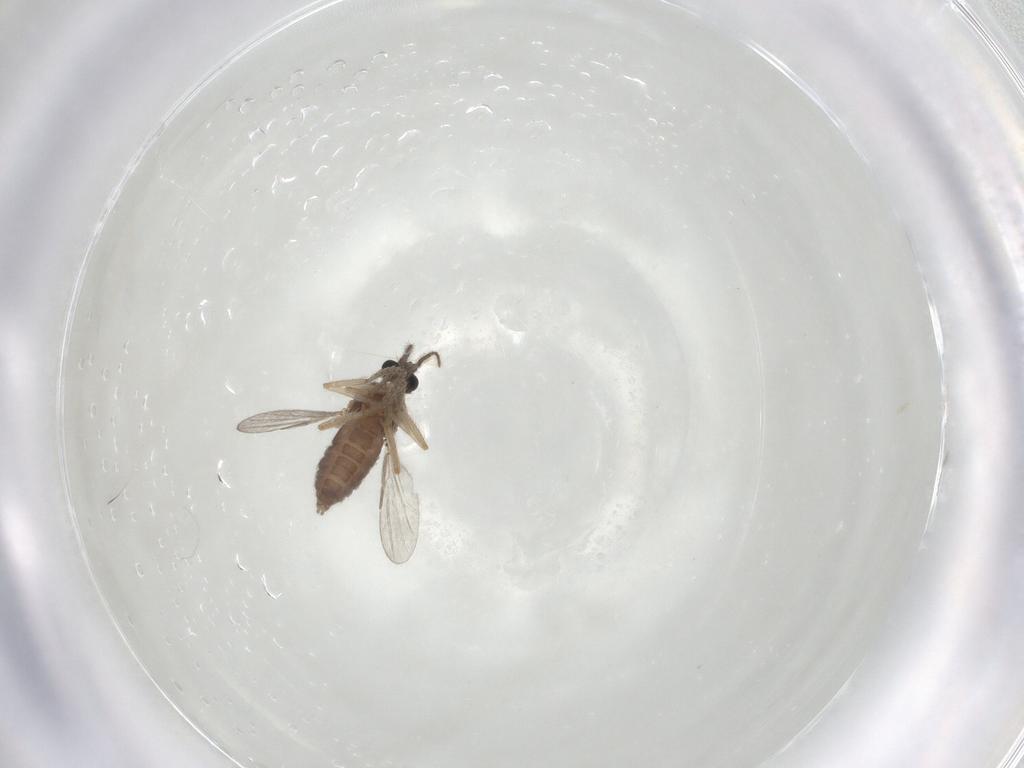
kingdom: Animalia
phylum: Arthropoda
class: Insecta
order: Diptera
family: Ceratopogonidae
